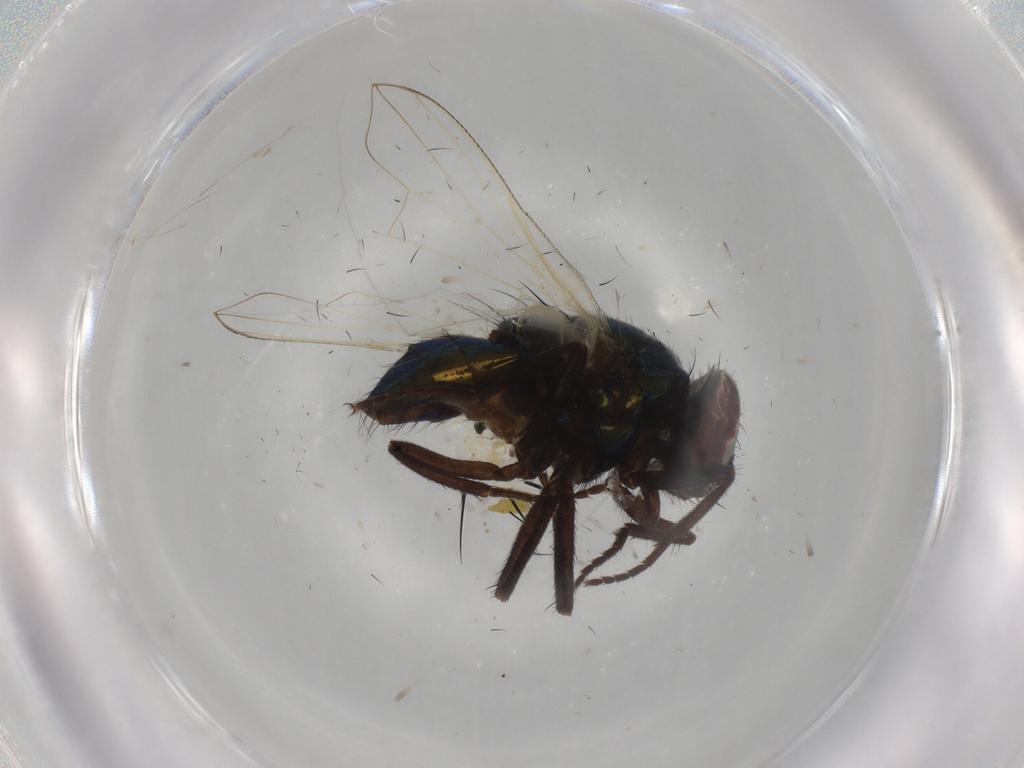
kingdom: Animalia
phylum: Arthropoda
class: Insecta
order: Diptera
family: Muscidae
